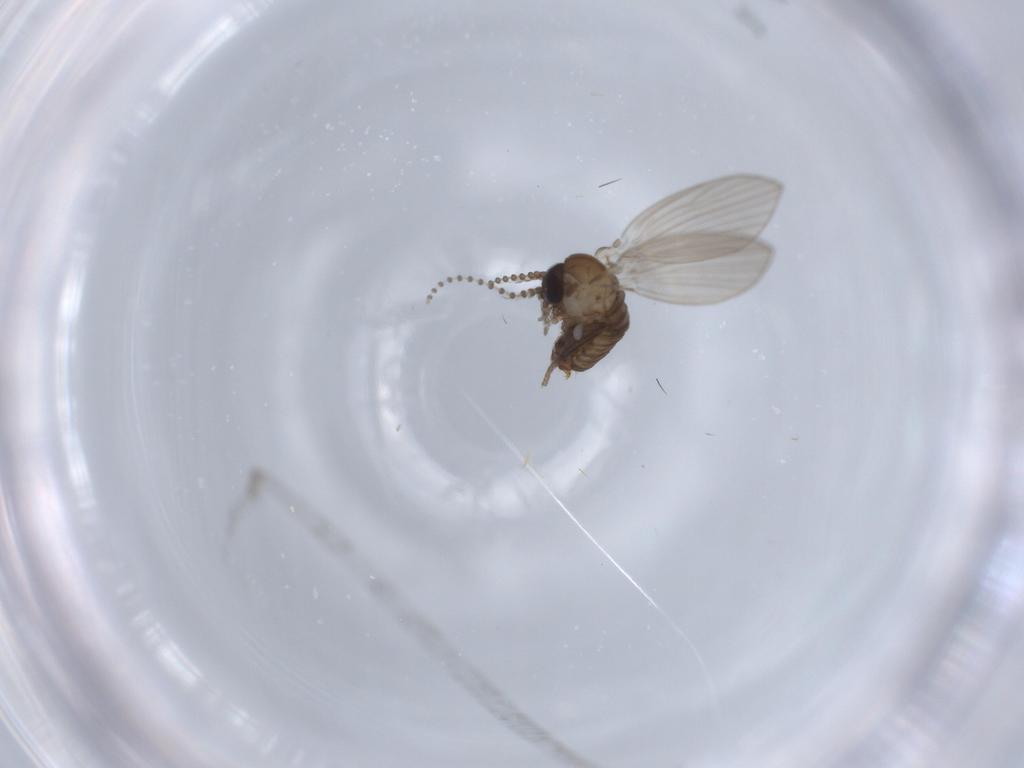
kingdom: Animalia
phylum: Arthropoda
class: Insecta
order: Diptera
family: Psychodidae
